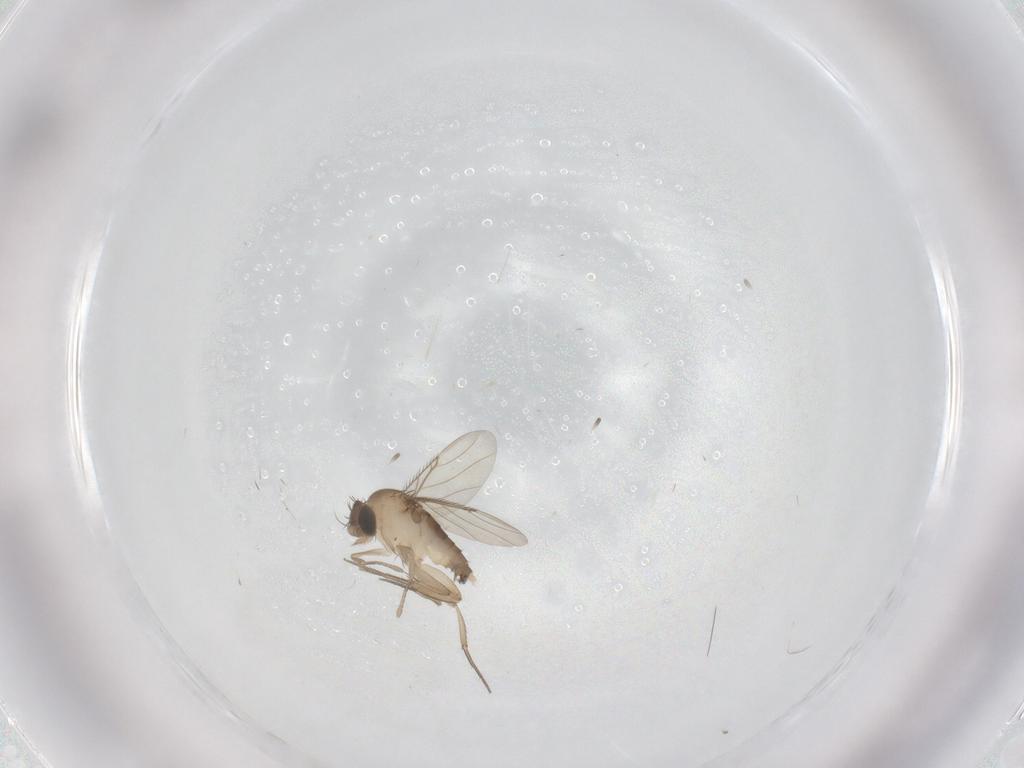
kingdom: Animalia
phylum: Arthropoda
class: Insecta
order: Diptera
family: Phoridae
